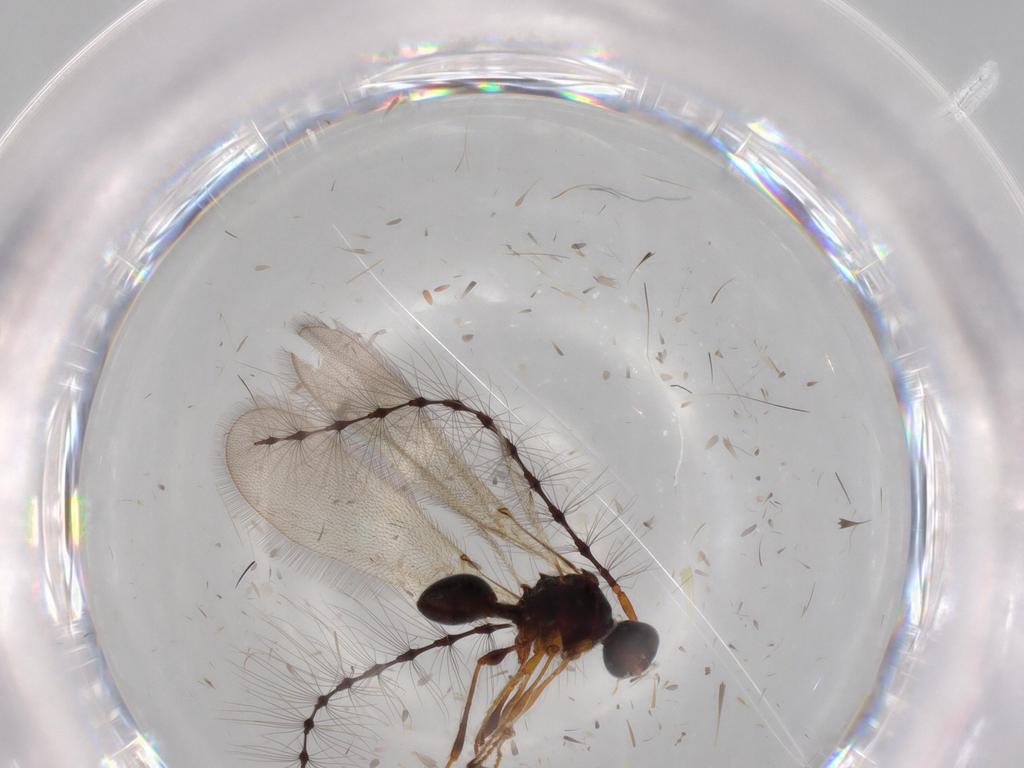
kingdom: Animalia
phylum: Arthropoda
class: Insecta
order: Hymenoptera
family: Diapriidae
